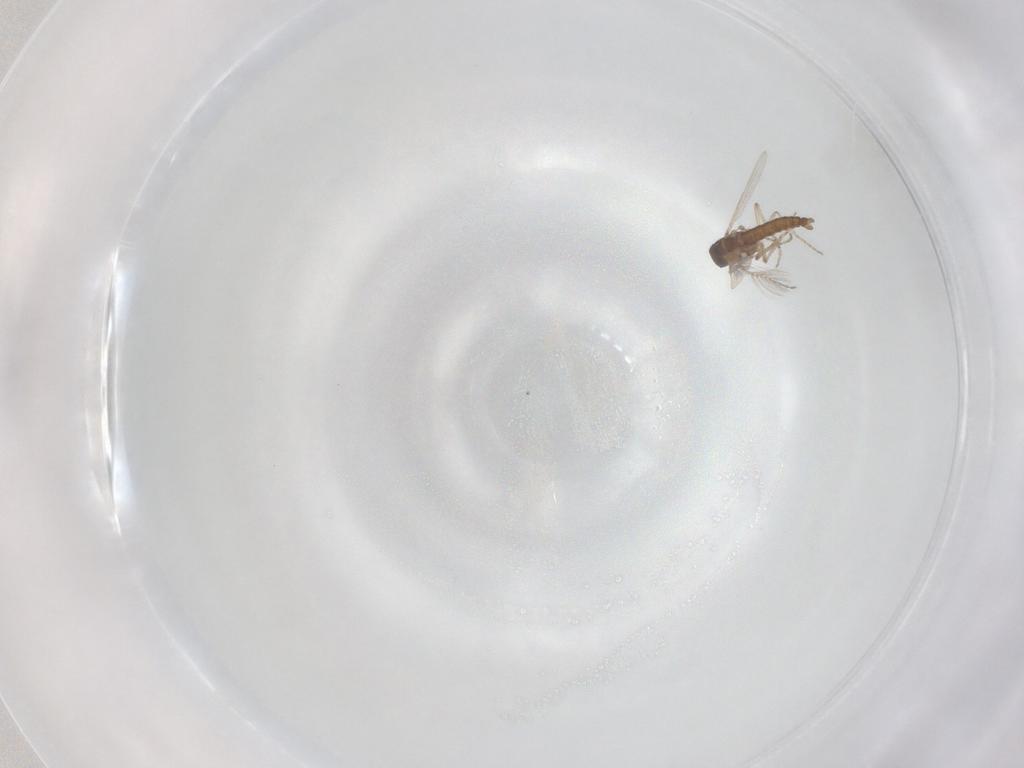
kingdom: Animalia
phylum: Arthropoda
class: Insecta
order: Diptera
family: Ceratopogonidae
